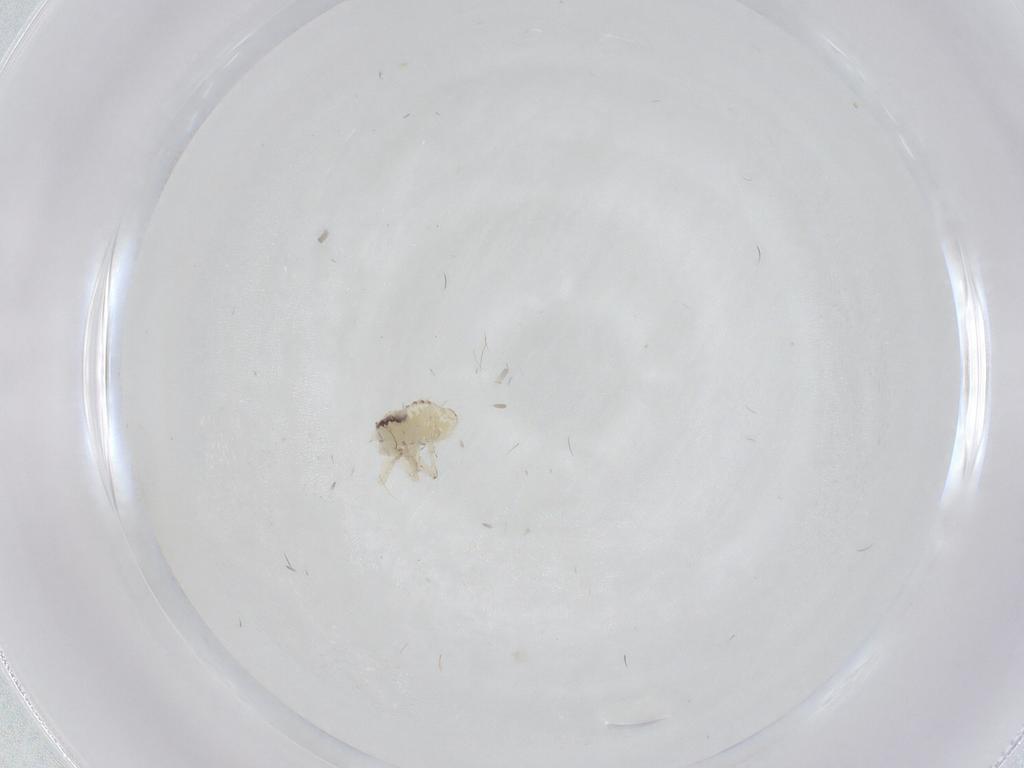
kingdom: Animalia
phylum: Arthropoda
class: Insecta
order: Psocodea
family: Pseudocaeciliidae
